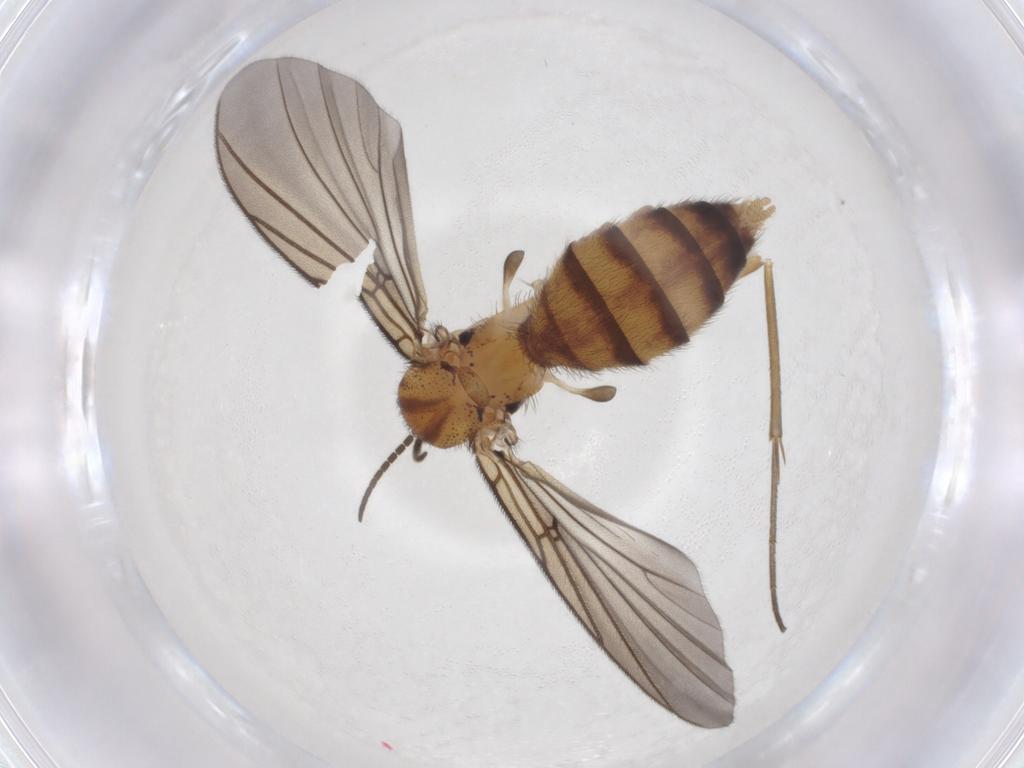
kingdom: Animalia
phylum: Arthropoda
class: Insecta
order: Diptera
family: Mycetophilidae
